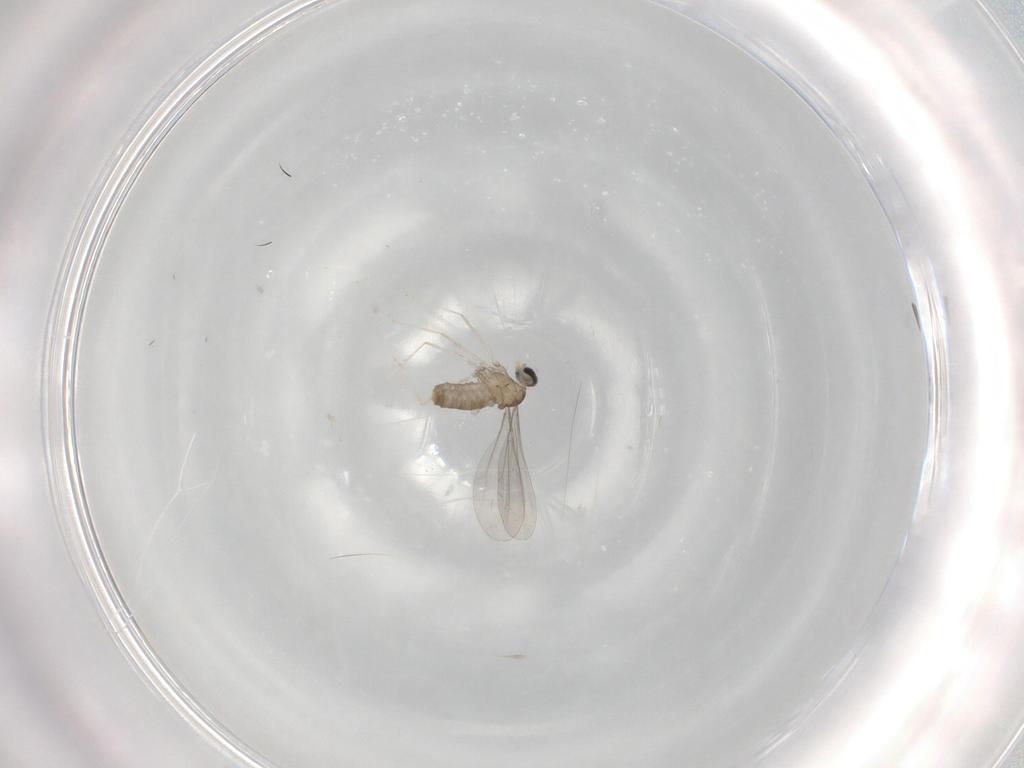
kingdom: Animalia
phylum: Arthropoda
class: Insecta
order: Diptera
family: Cecidomyiidae
